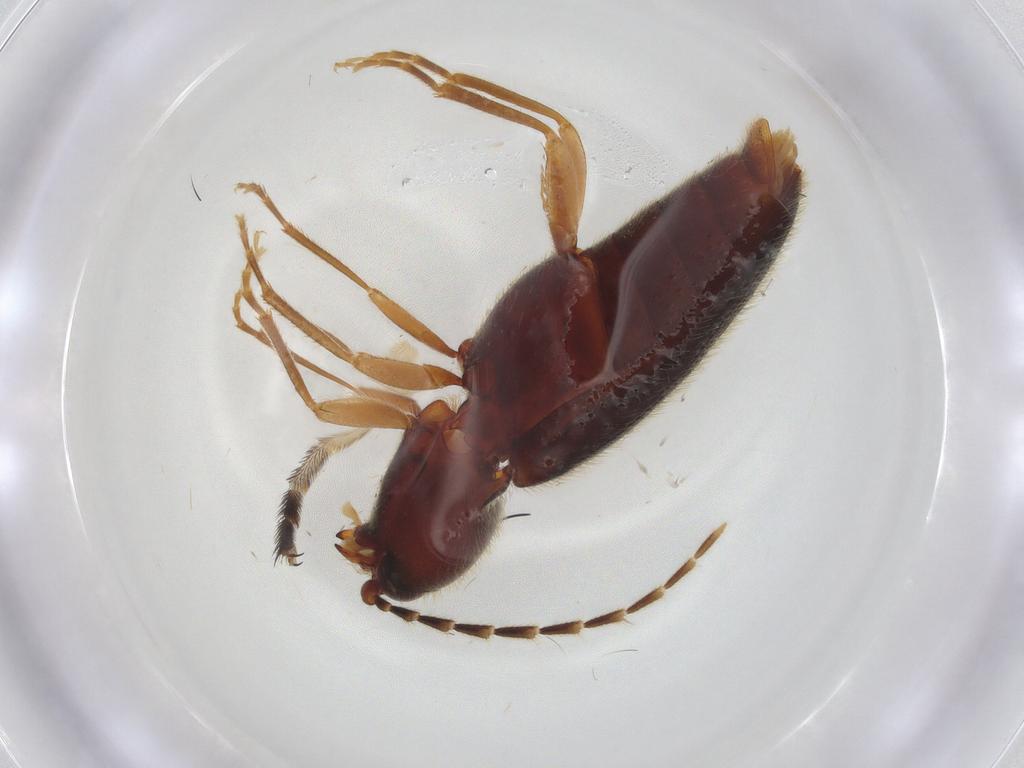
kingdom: Animalia
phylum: Arthropoda
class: Insecta
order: Coleoptera
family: Elateridae
